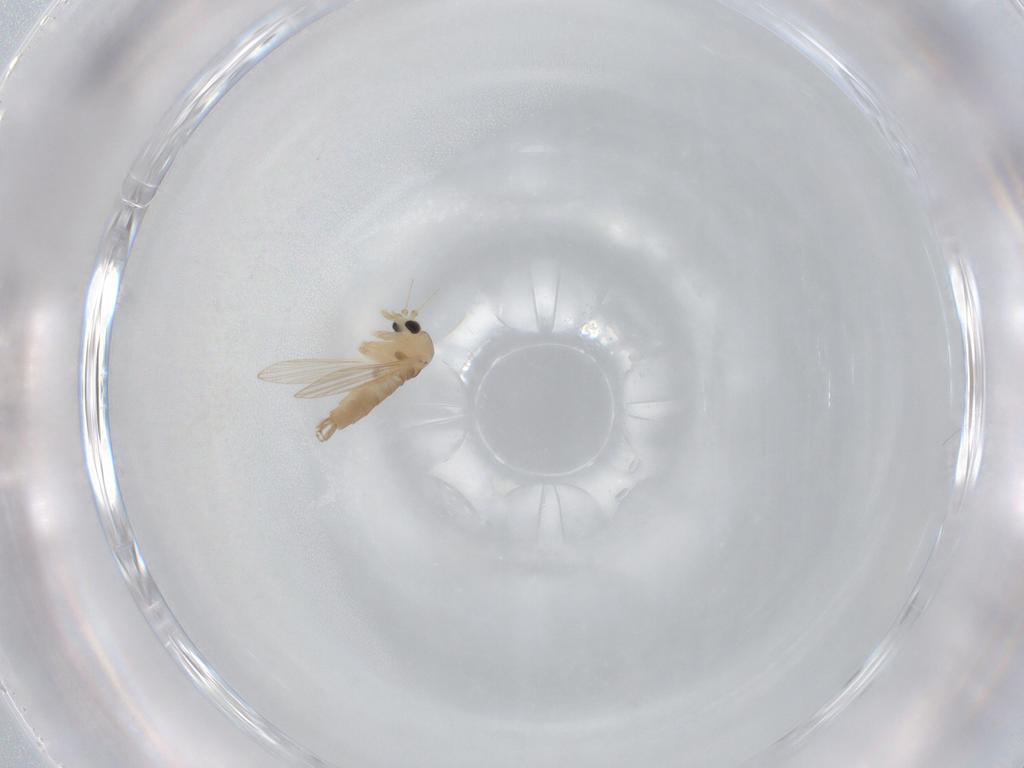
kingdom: Animalia
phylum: Arthropoda
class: Insecta
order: Diptera
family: Psychodidae
